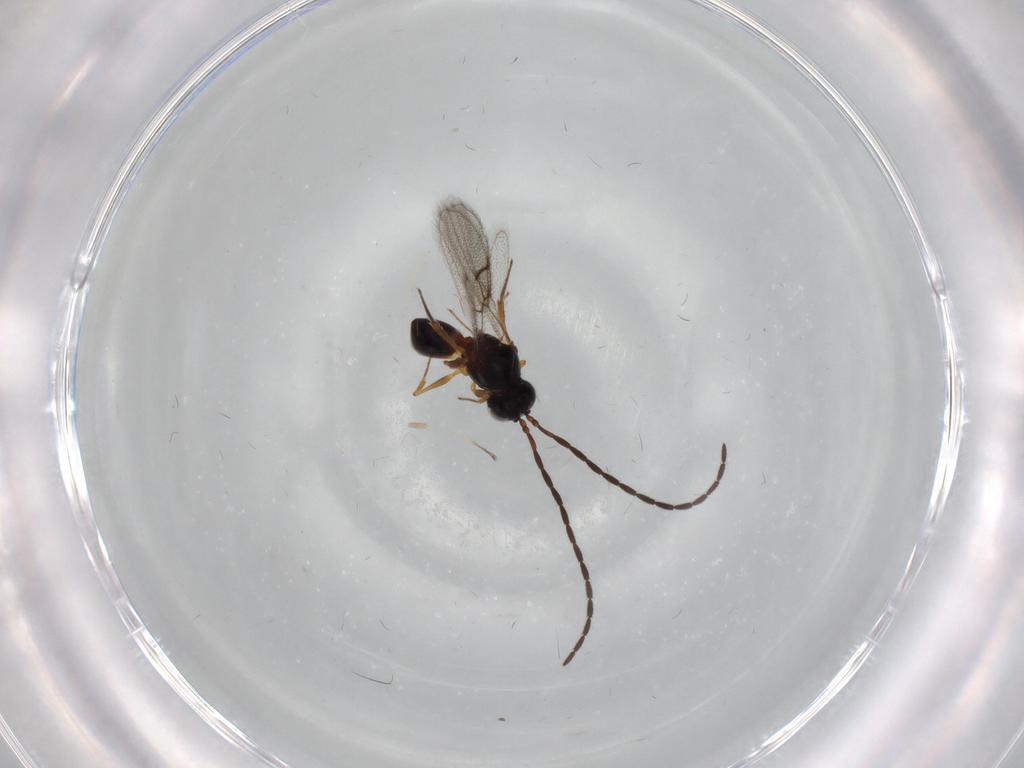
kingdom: Animalia
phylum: Arthropoda
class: Insecta
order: Hymenoptera
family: Figitidae
